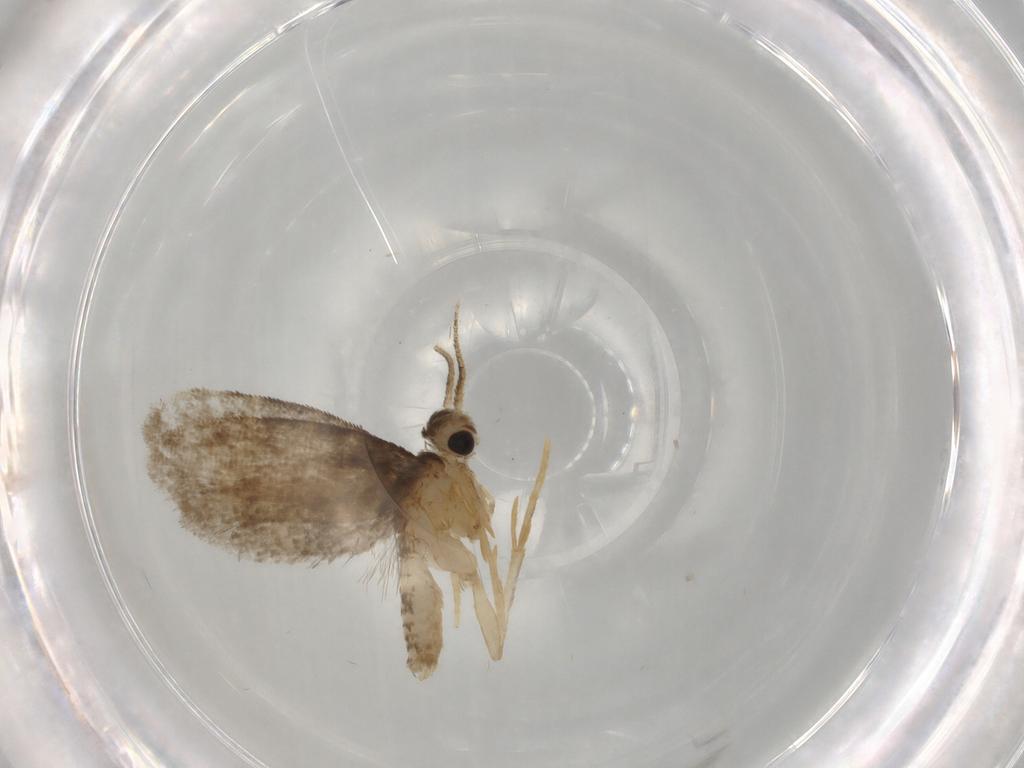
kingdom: Animalia
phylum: Arthropoda
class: Insecta
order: Lepidoptera
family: Psychidae
